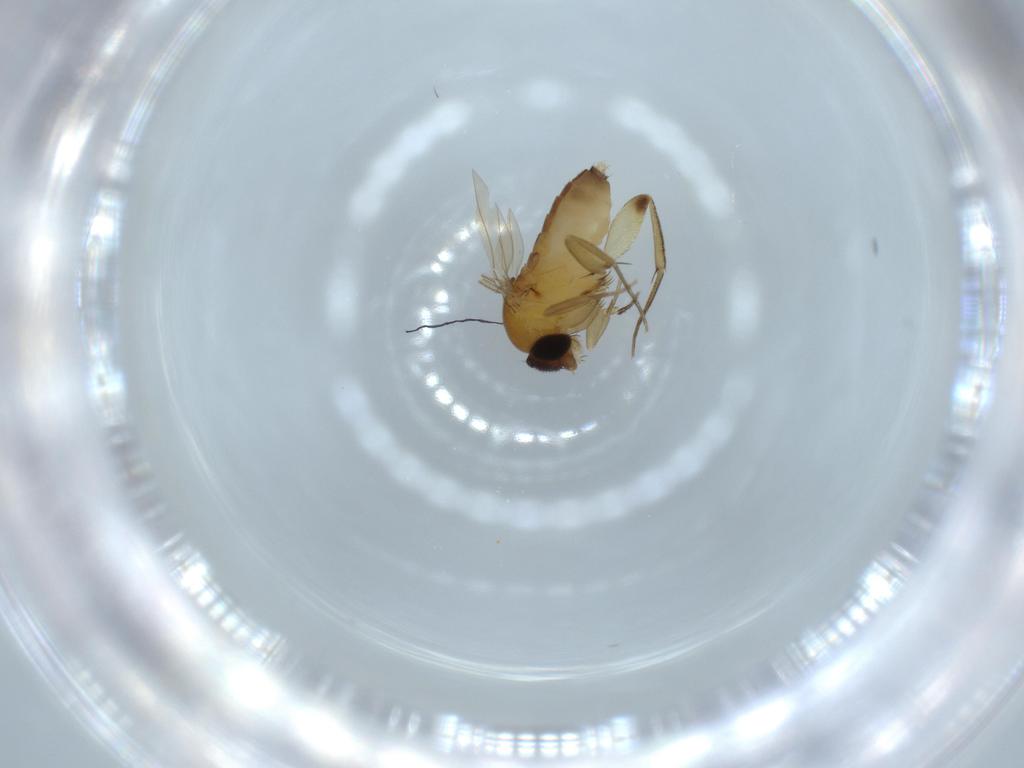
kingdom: Animalia
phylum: Arthropoda
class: Insecta
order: Diptera
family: Phoridae
